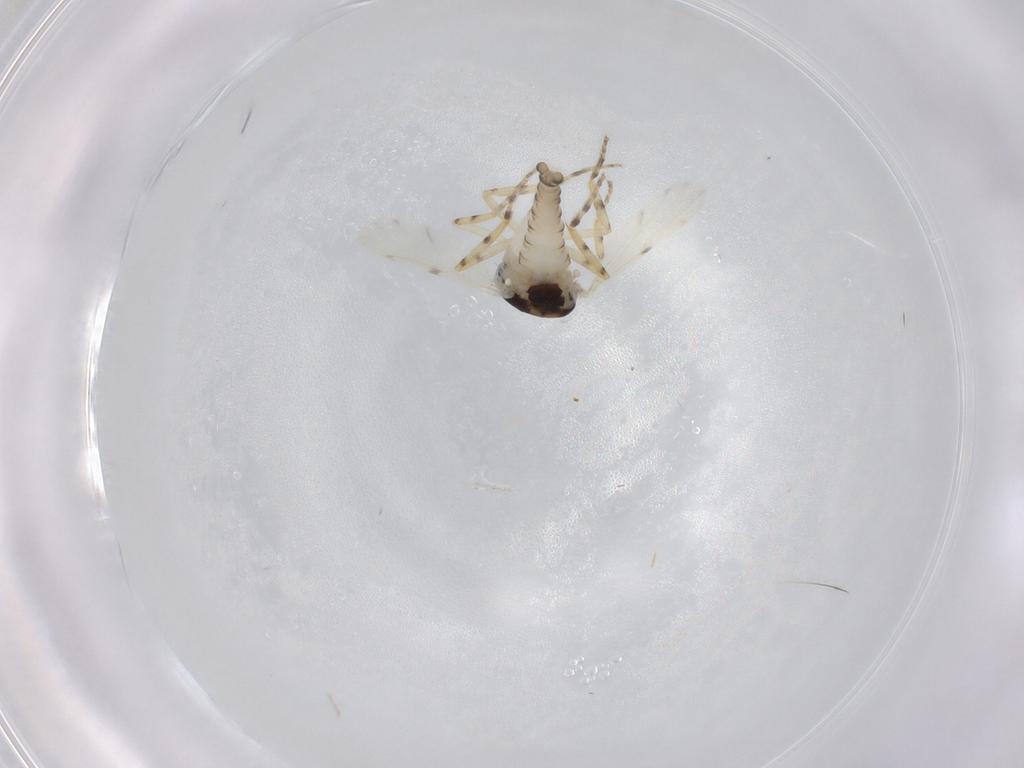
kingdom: Animalia
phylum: Arthropoda
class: Insecta
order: Diptera
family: Ceratopogonidae
